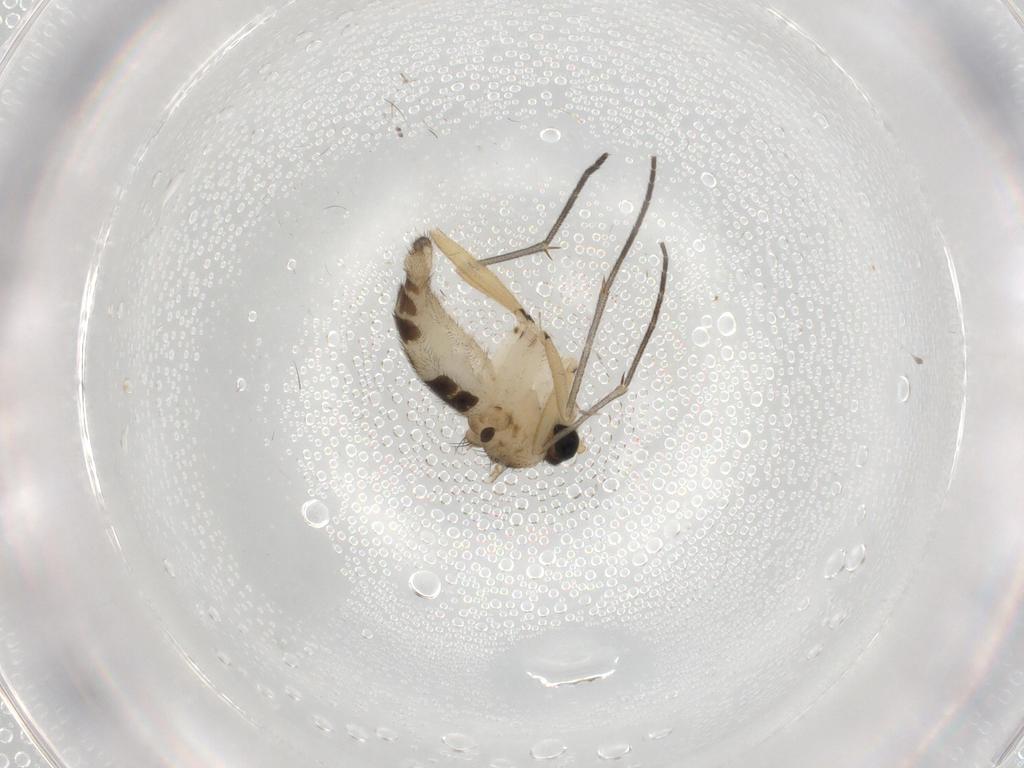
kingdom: Animalia
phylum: Arthropoda
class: Insecta
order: Diptera
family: Sciaridae
